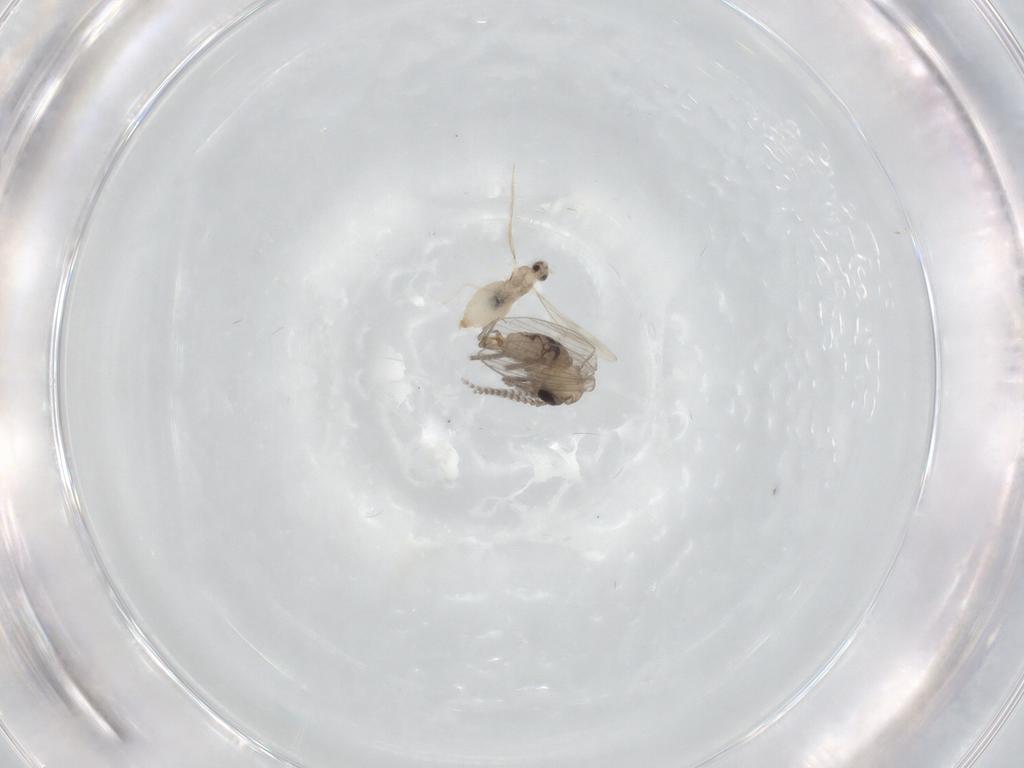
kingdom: Animalia
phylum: Arthropoda
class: Insecta
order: Diptera
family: Psychodidae
